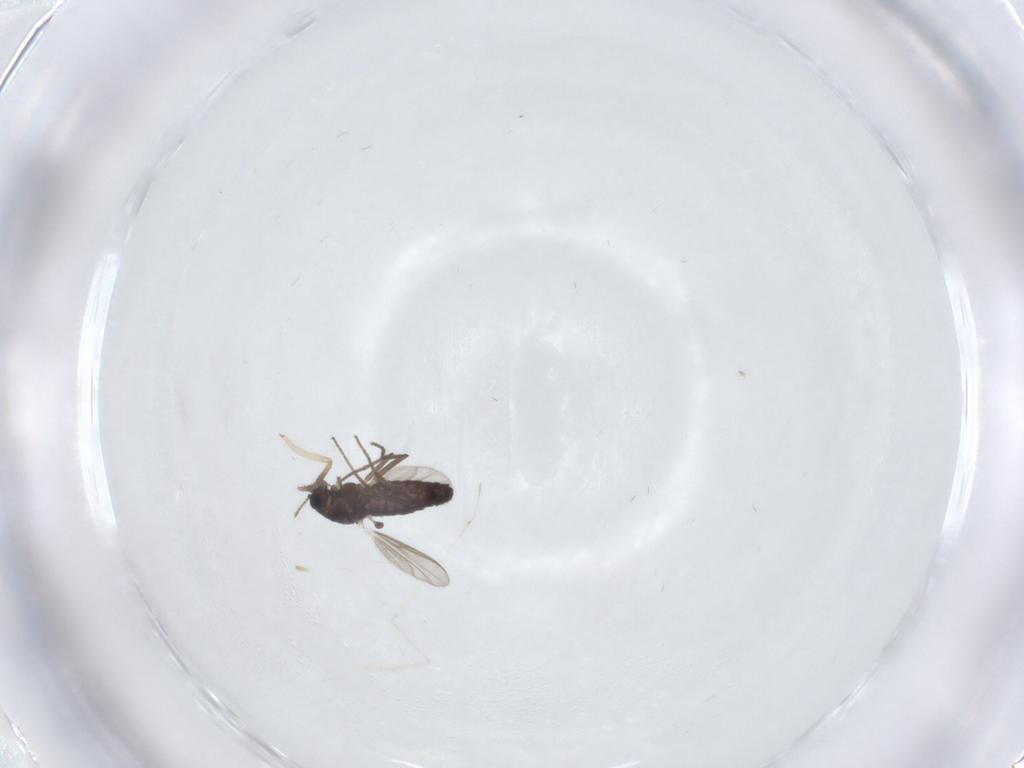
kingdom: Animalia
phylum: Arthropoda
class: Insecta
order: Diptera
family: Chironomidae
